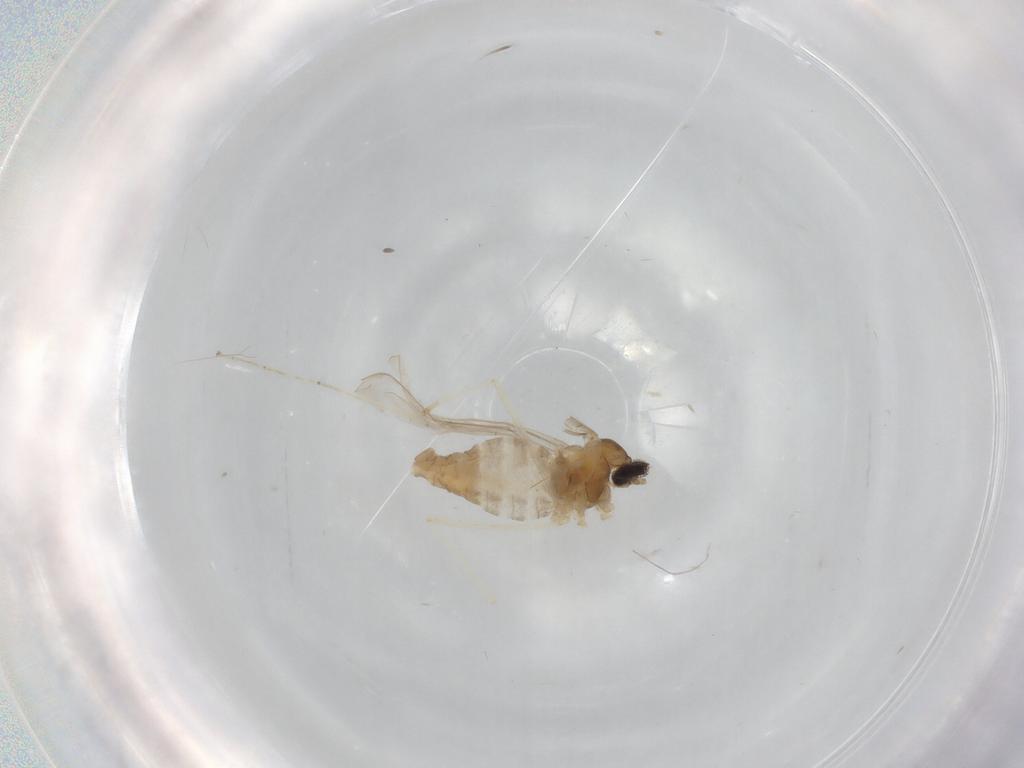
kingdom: Animalia
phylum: Arthropoda
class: Insecta
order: Diptera
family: Cecidomyiidae
